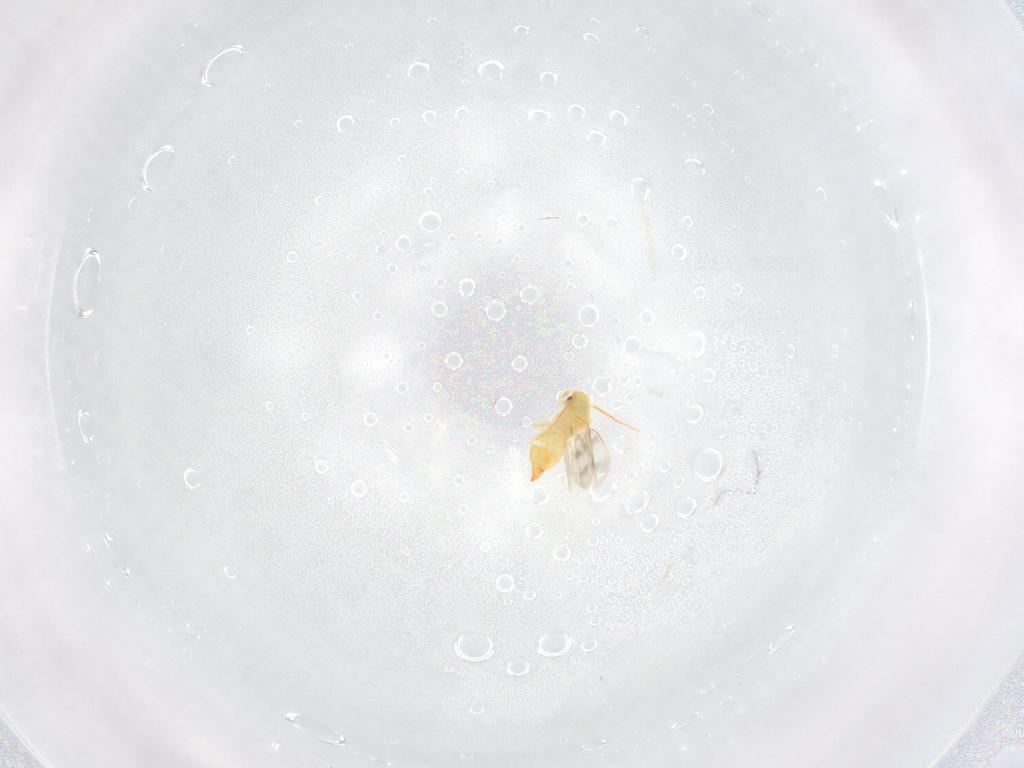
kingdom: Animalia
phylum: Arthropoda
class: Insecta
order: Hemiptera
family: Aleyrodidae
